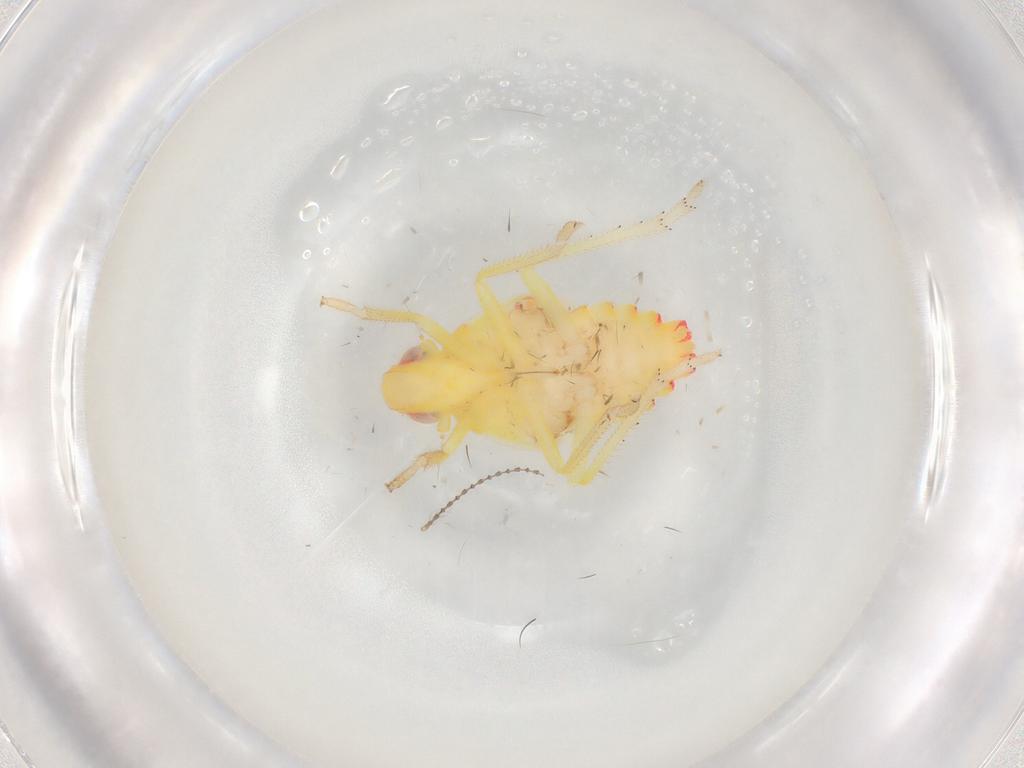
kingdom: Animalia
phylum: Arthropoda
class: Insecta
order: Hemiptera
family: Tropiduchidae
